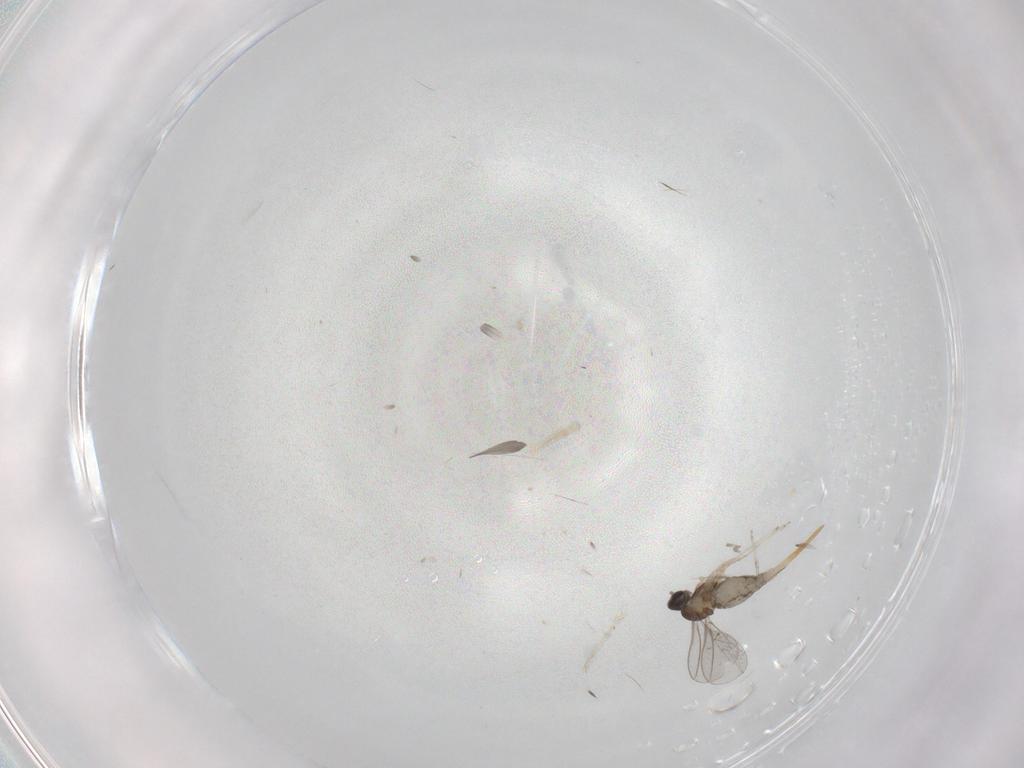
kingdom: Animalia
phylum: Arthropoda
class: Insecta
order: Diptera
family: Cecidomyiidae
